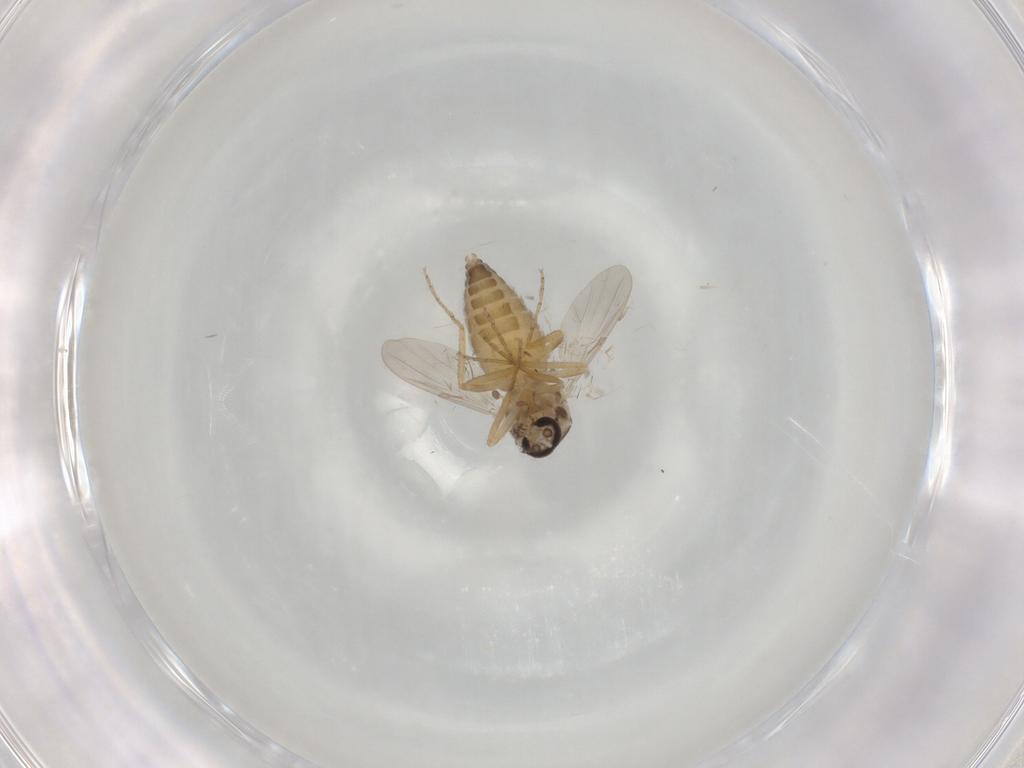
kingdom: Animalia
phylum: Arthropoda
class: Insecta
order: Diptera
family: Ceratopogonidae
